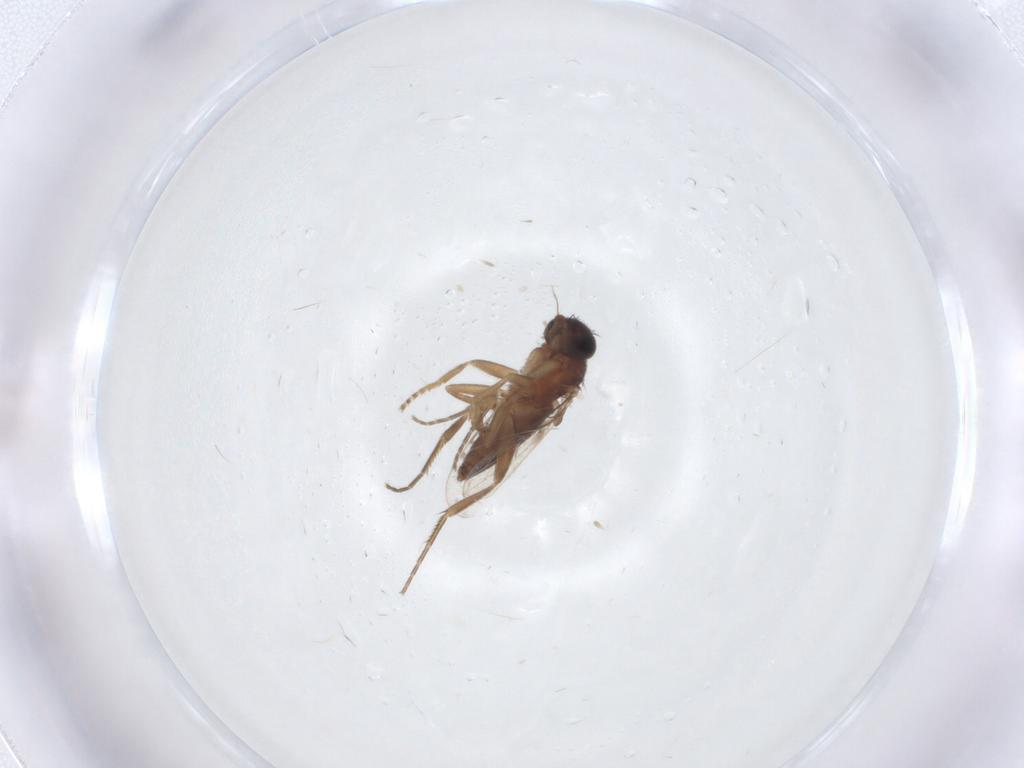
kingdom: Animalia
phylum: Arthropoda
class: Insecta
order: Diptera
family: Phoridae
